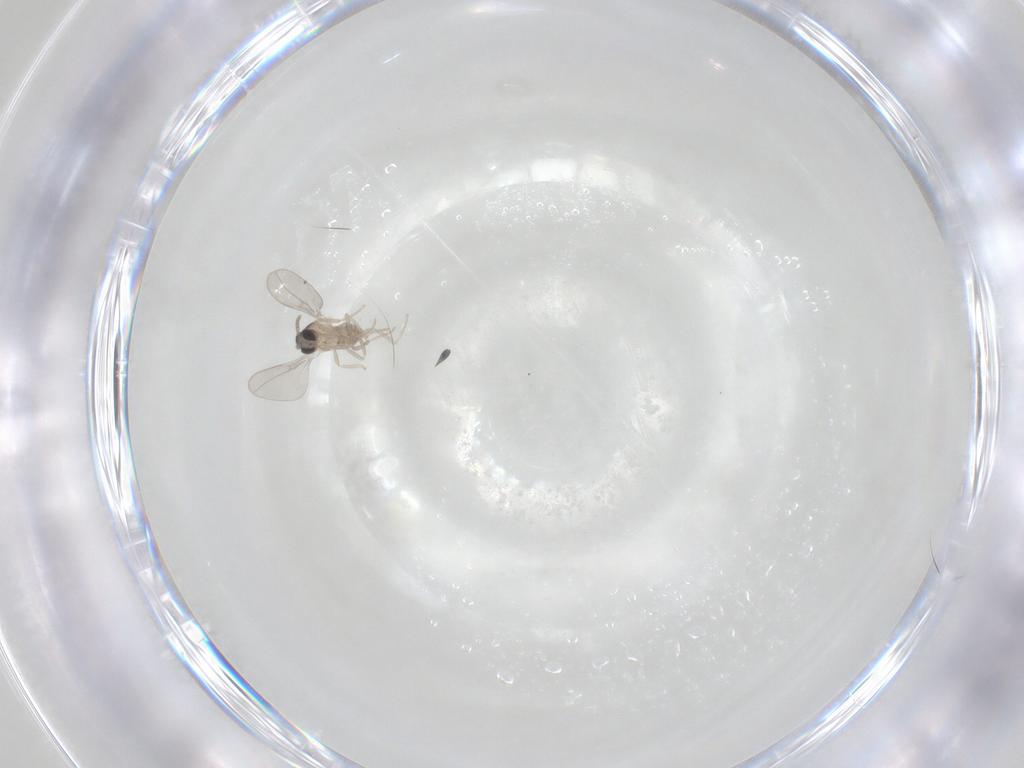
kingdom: Animalia
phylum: Arthropoda
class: Insecta
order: Diptera
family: Cecidomyiidae
